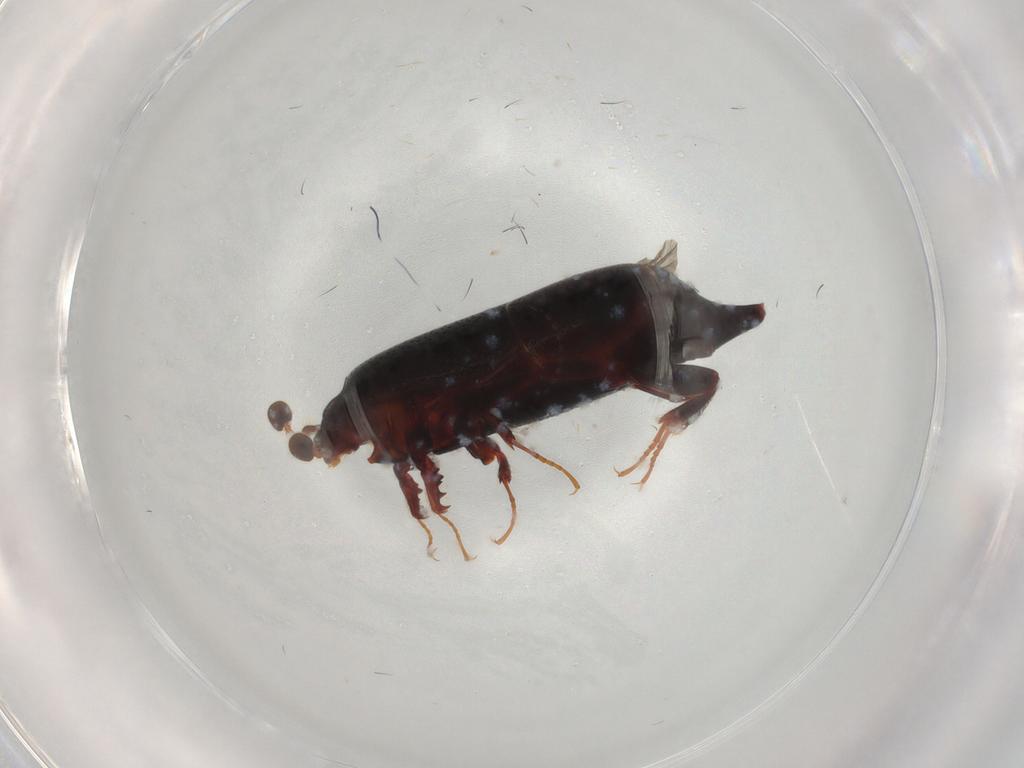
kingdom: Animalia
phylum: Arthropoda
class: Insecta
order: Coleoptera
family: Histeridae
